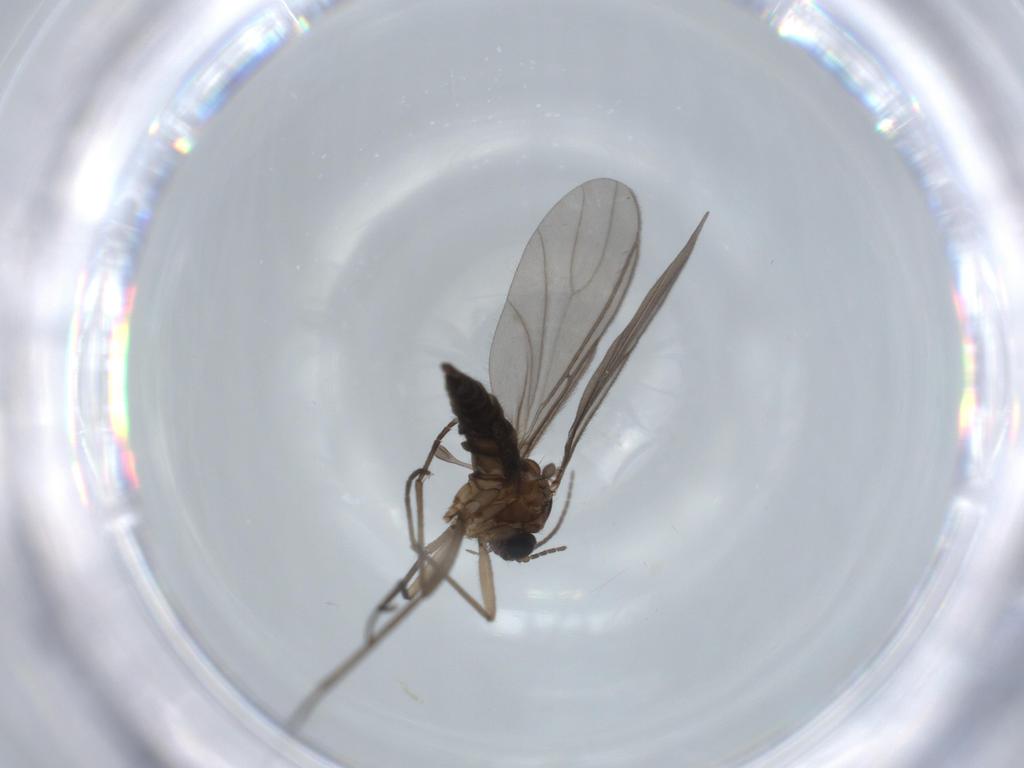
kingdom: Animalia
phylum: Arthropoda
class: Insecta
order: Diptera
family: Sciaridae
